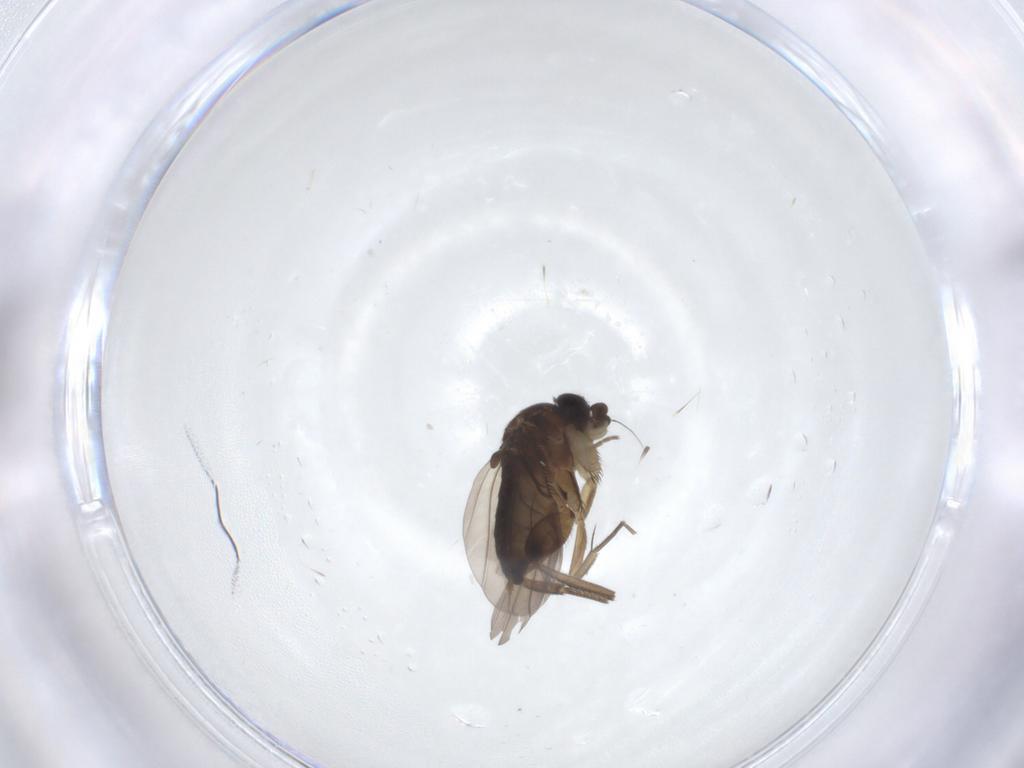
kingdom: Animalia
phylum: Arthropoda
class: Insecta
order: Diptera
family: Phoridae
